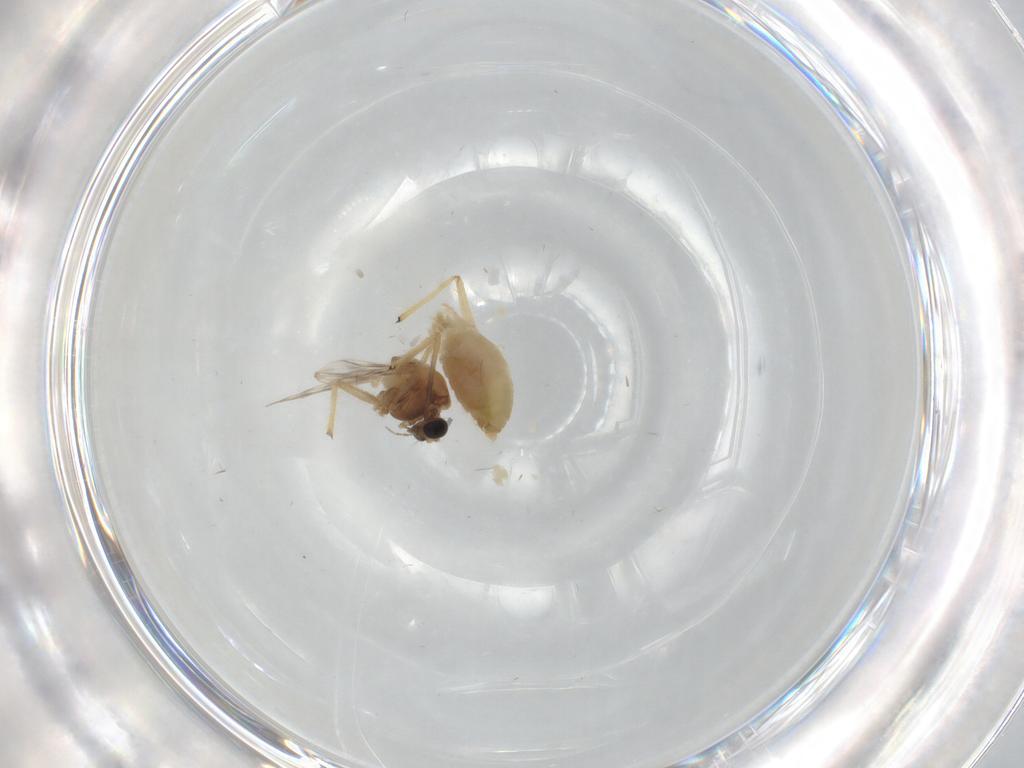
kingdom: Animalia
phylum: Arthropoda
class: Insecta
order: Diptera
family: Chironomidae
